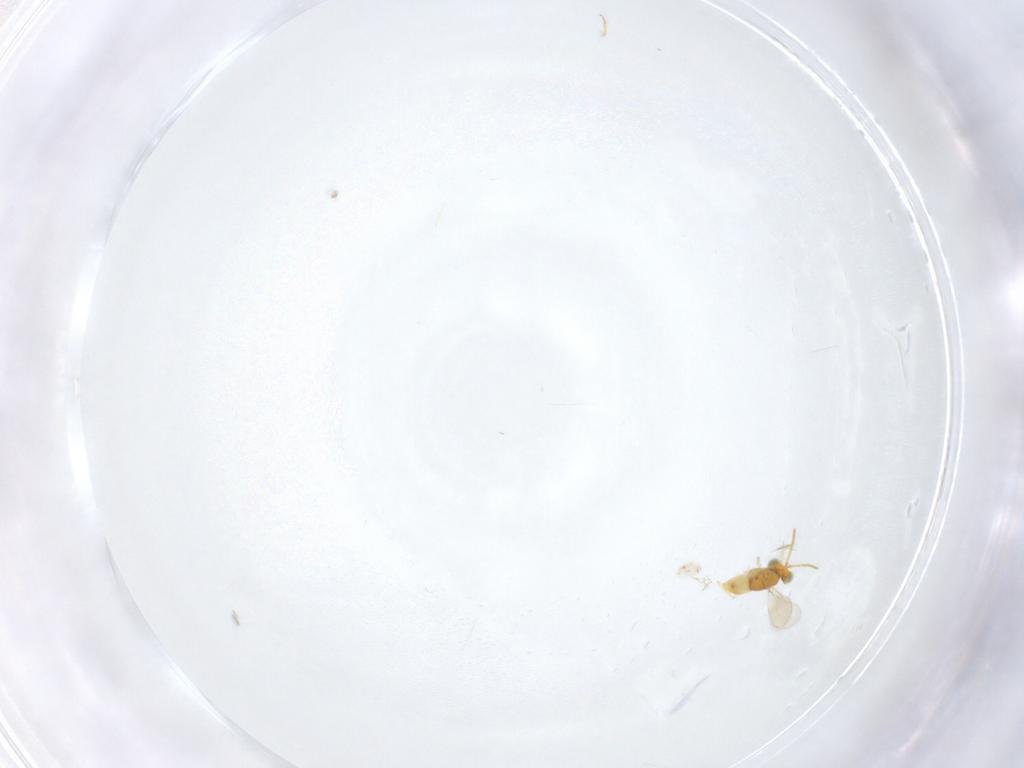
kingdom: Animalia
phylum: Arthropoda
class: Insecta
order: Hymenoptera
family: Aphelinidae
